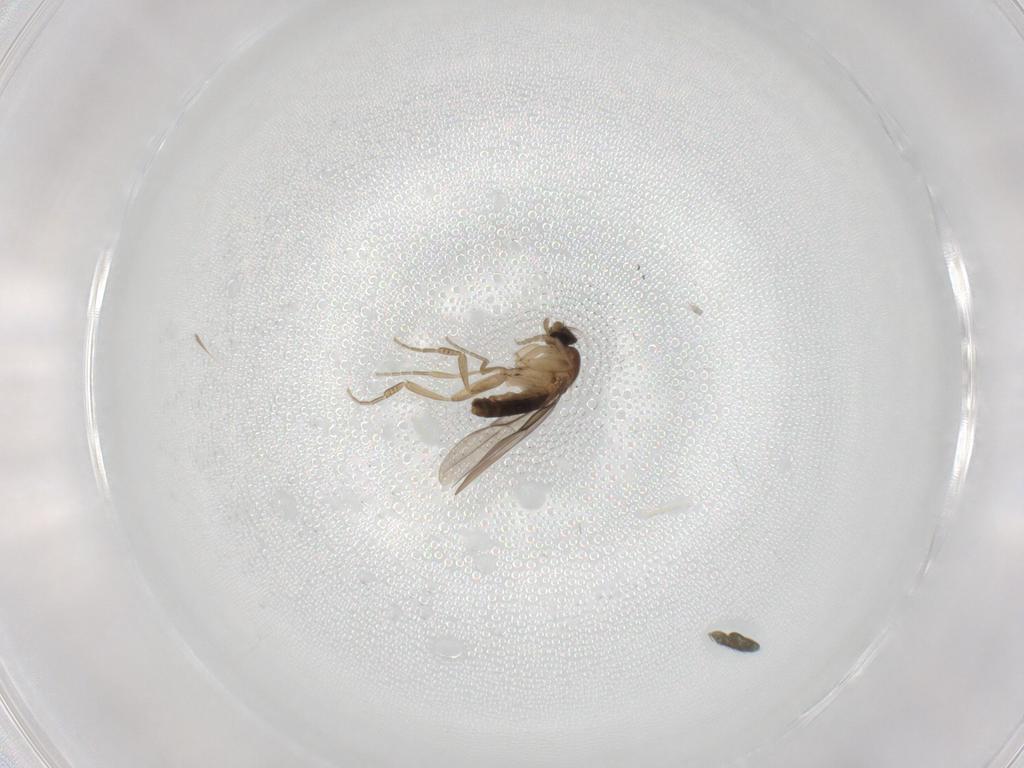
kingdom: Animalia
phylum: Arthropoda
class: Insecta
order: Diptera
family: Phoridae
